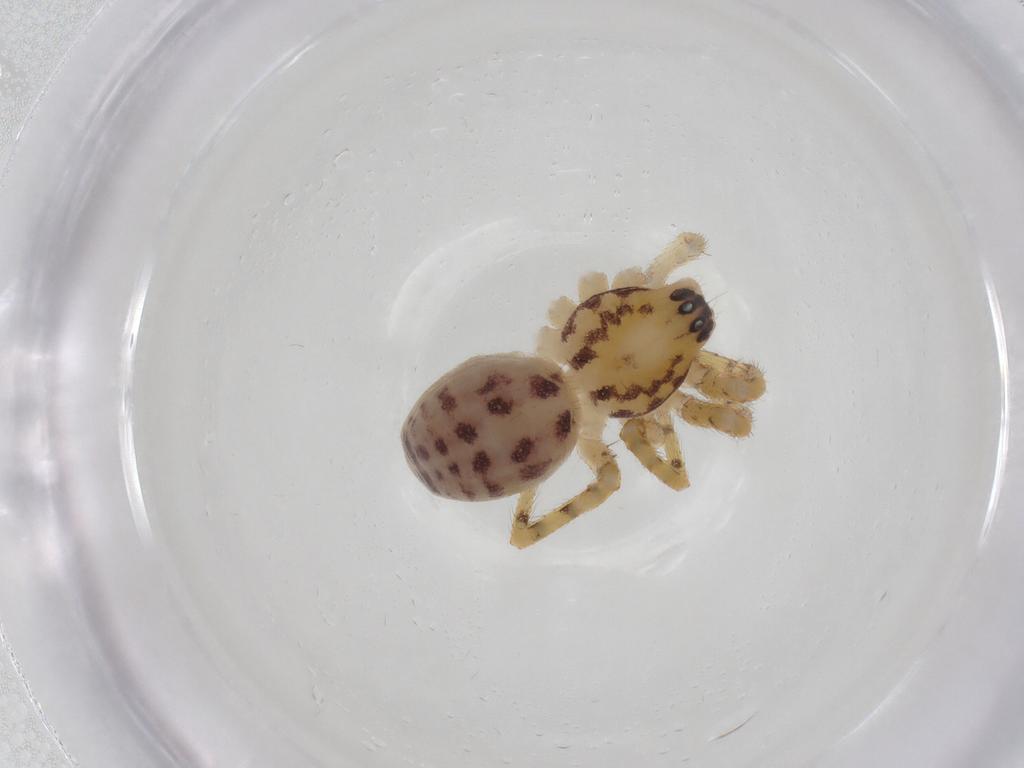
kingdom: Animalia
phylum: Arthropoda
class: Arachnida
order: Araneae
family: Corinnidae
